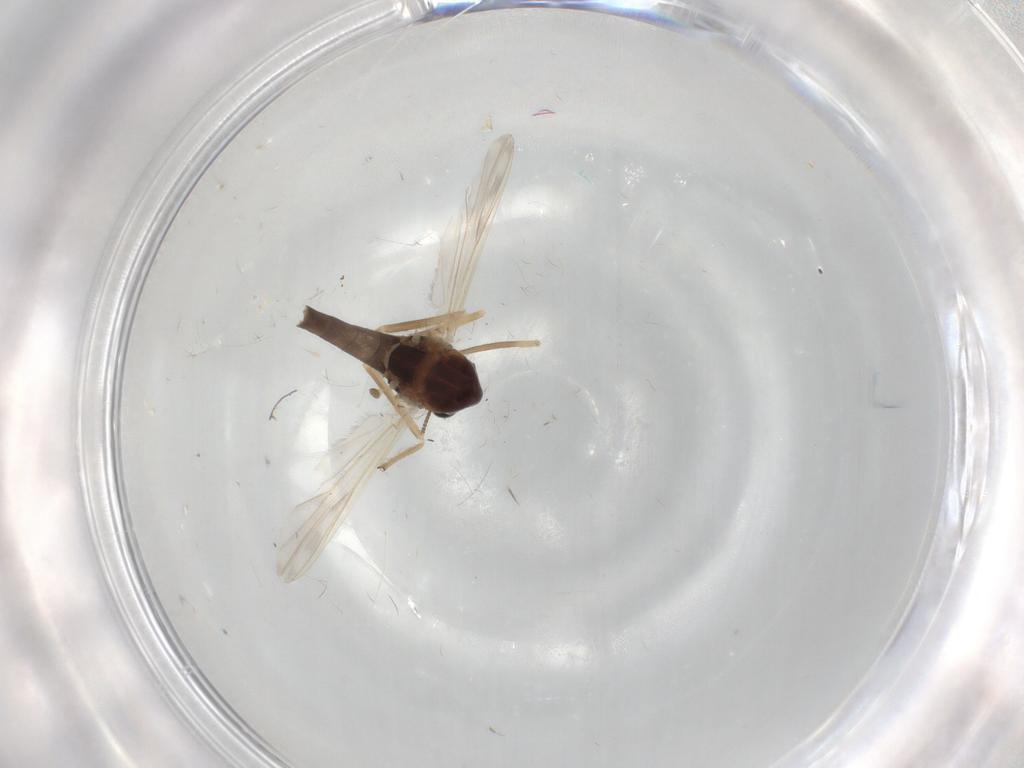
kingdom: Animalia
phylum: Arthropoda
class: Insecta
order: Diptera
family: Chironomidae
